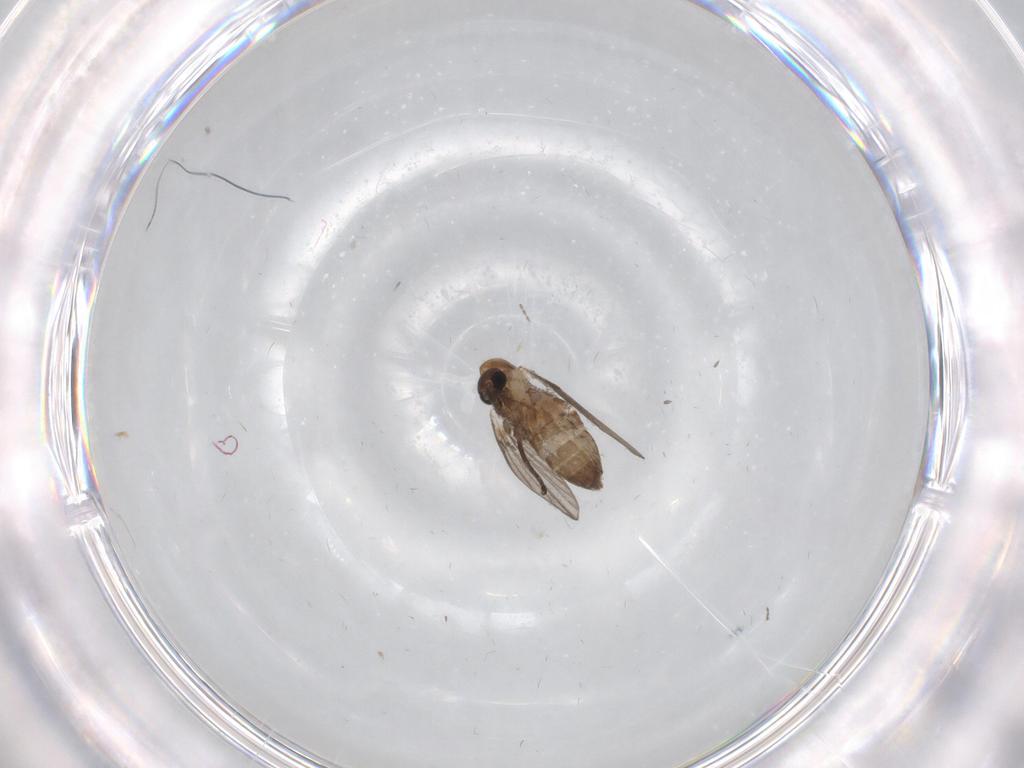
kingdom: Animalia
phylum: Arthropoda
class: Insecta
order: Diptera
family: Psychodidae
